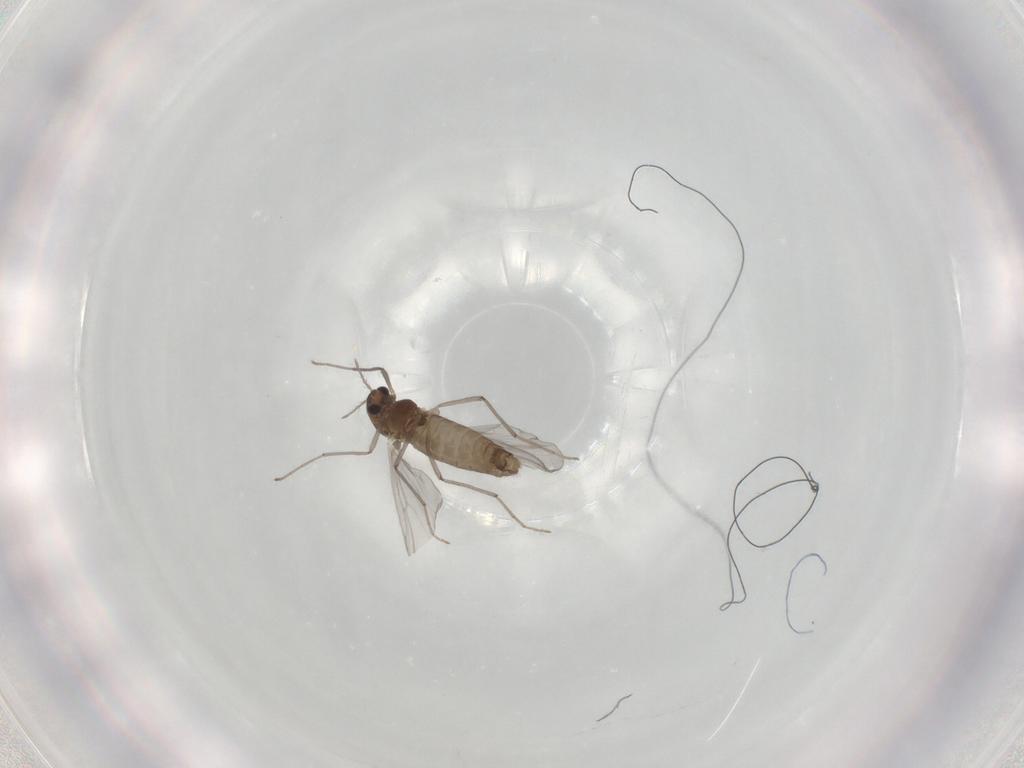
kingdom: Animalia
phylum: Arthropoda
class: Insecta
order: Diptera
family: Chironomidae
